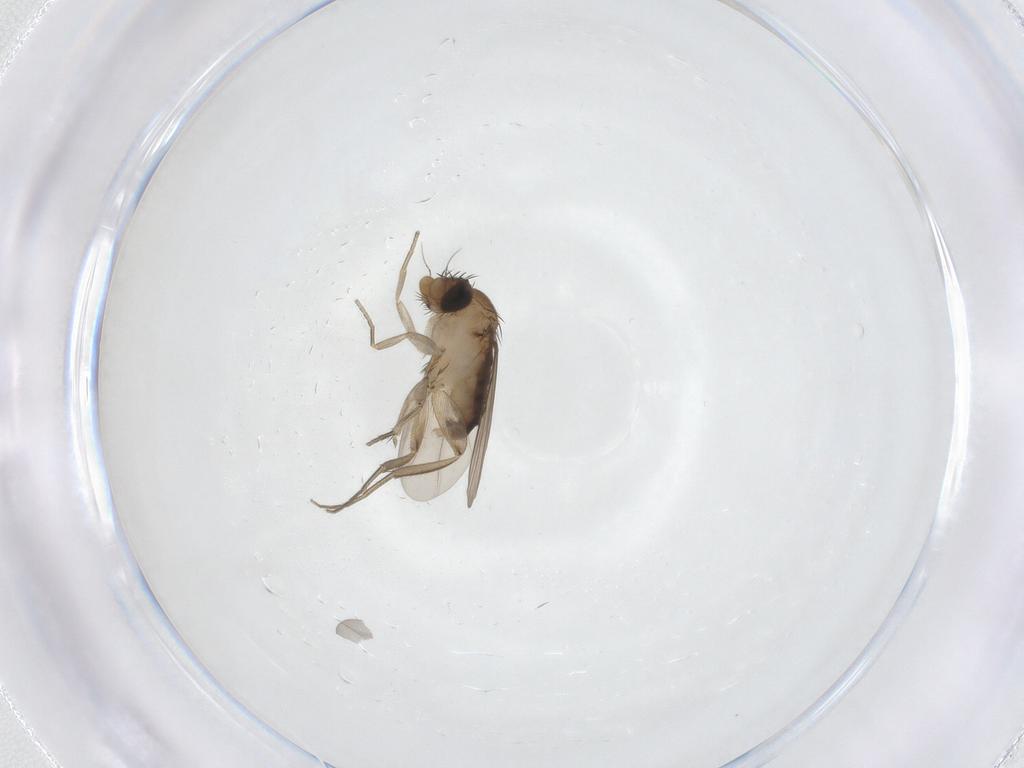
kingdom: Animalia
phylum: Arthropoda
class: Insecta
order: Diptera
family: Phoridae
